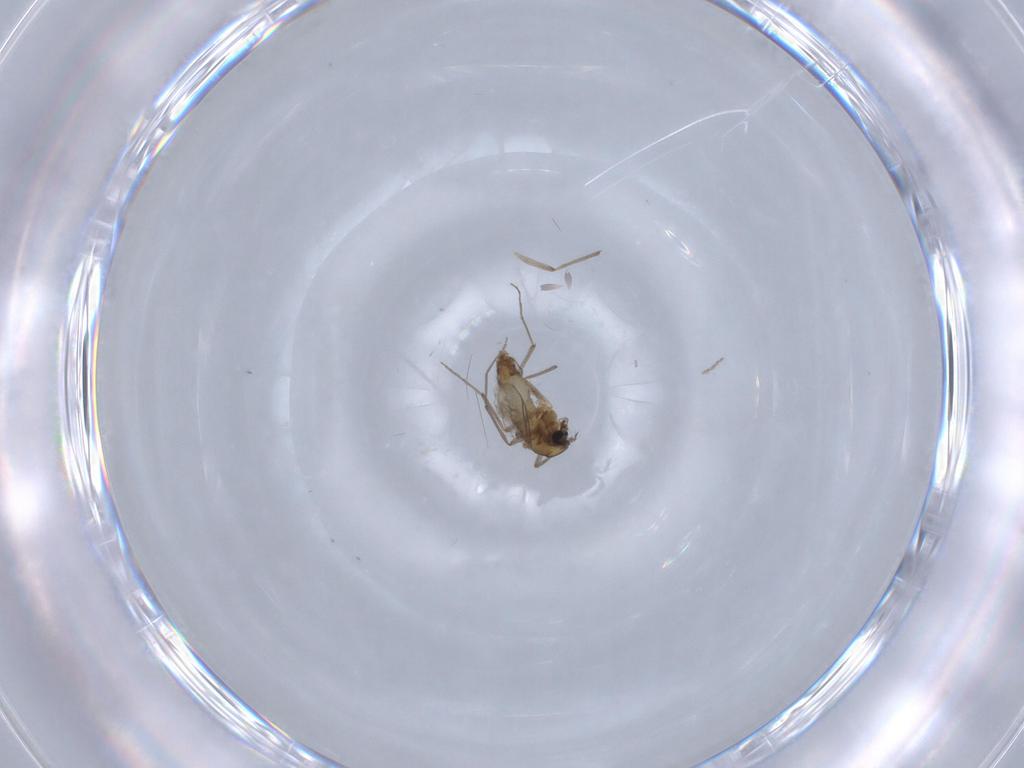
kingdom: Animalia
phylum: Arthropoda
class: Insecta
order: Diptera
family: Chironomidae
